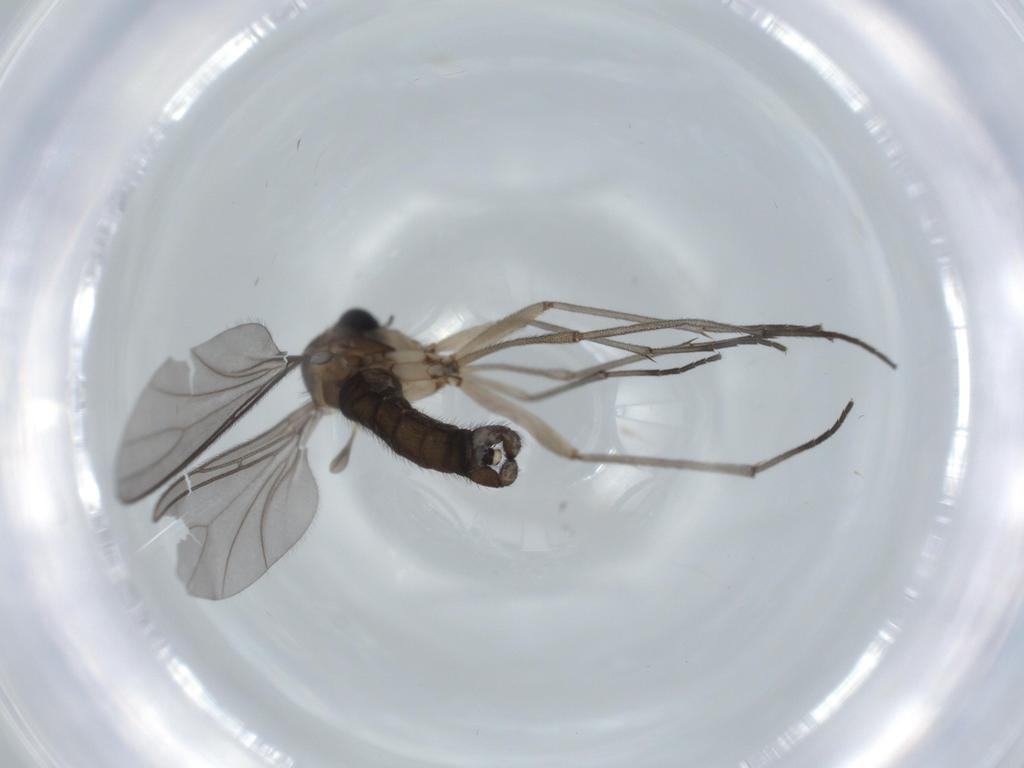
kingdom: Animalia
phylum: Arthropoda
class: Insecta
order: Diptera
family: Sciaridae
